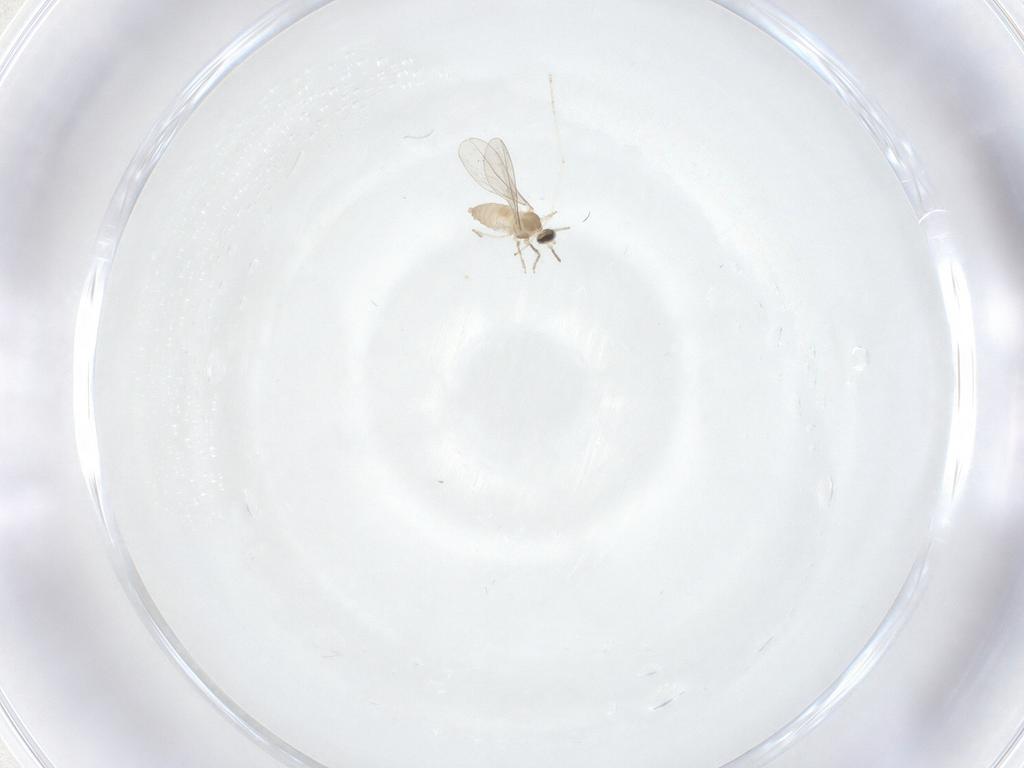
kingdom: Animalia
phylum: Arthropoda
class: Insecta
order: Diptera
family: Cecidomyiidae
